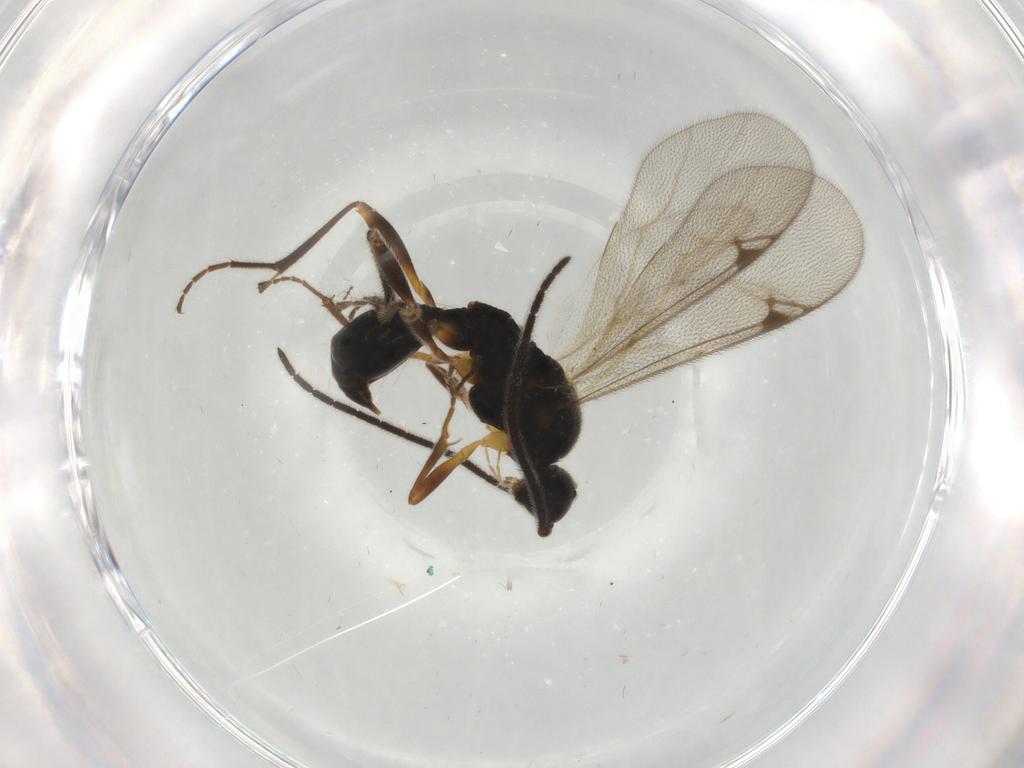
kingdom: Animalia
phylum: Arthropoda
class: Insecta
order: Hymenoptera
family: Proctotrupidae
